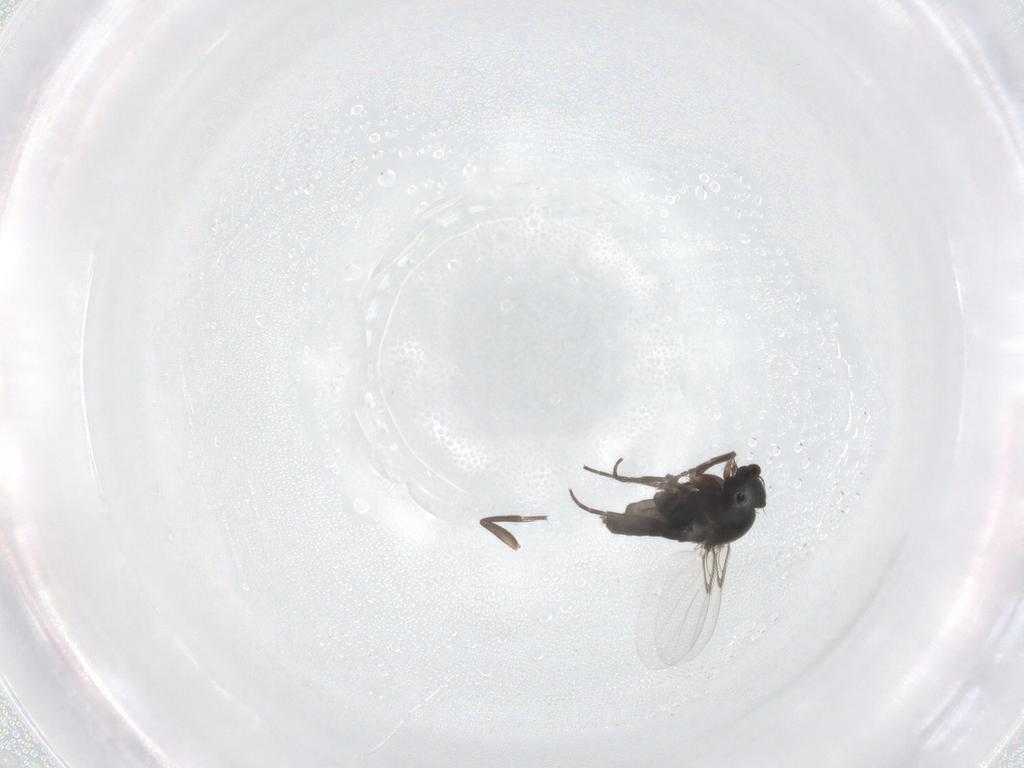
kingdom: Animalia
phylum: Arthropoda
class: Insecta
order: Diptera
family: Phoridae
